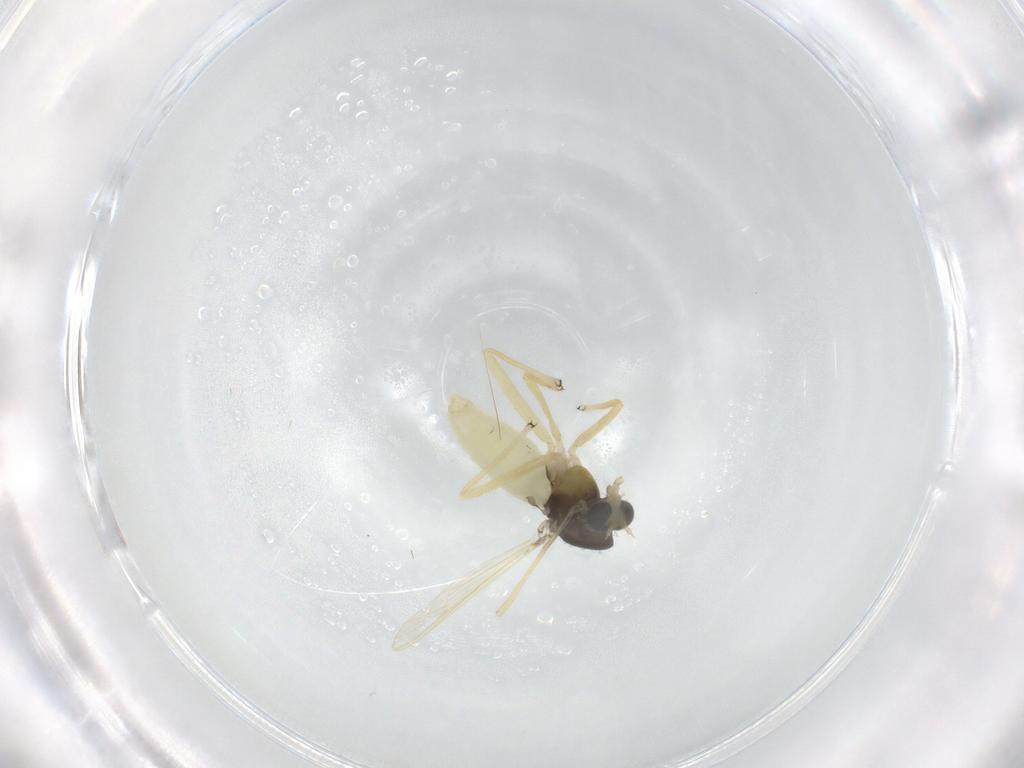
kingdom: Animalia
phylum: Arthropoda
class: Insecta
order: Diptera
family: Chironomidae
